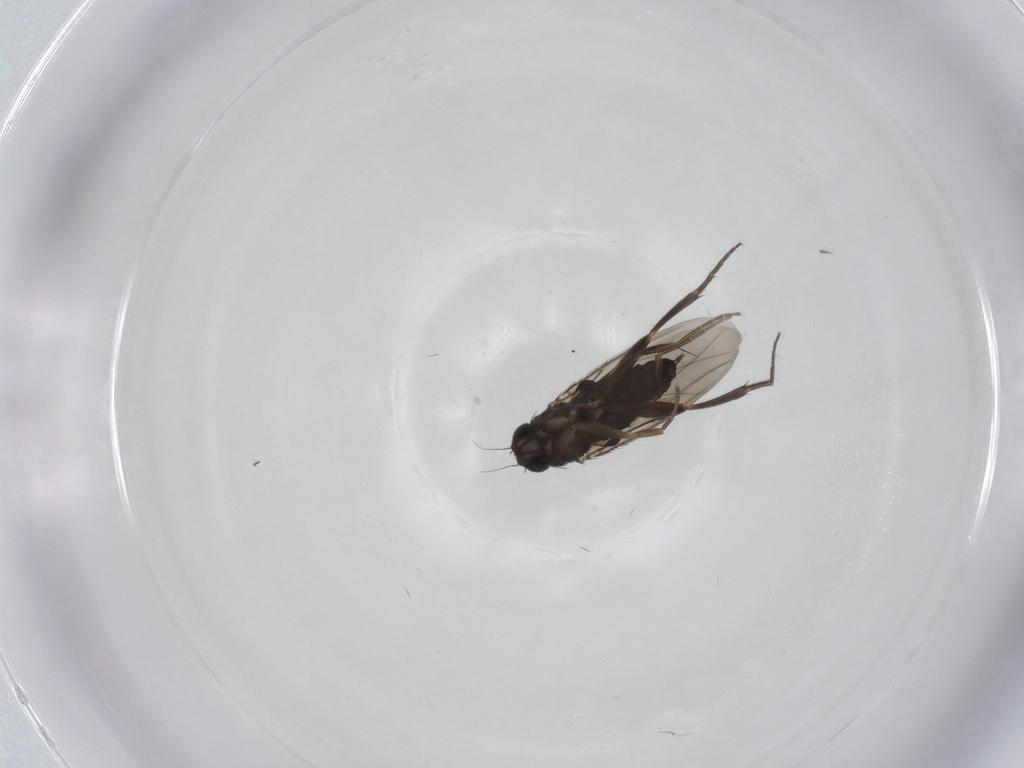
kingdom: Animalia
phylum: Arthropoda
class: Insecta
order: Diptera
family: Phoridae
